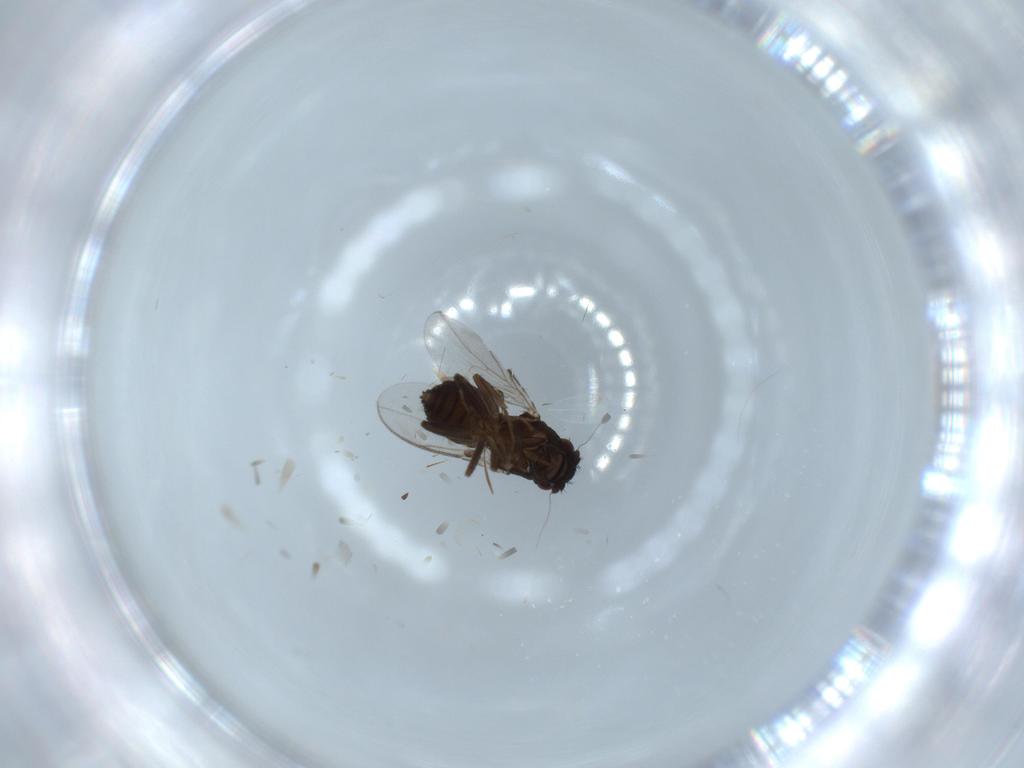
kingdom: Animalia
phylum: Arthropoda
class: Insecta
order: Diptera
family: Sphaeroceridae
